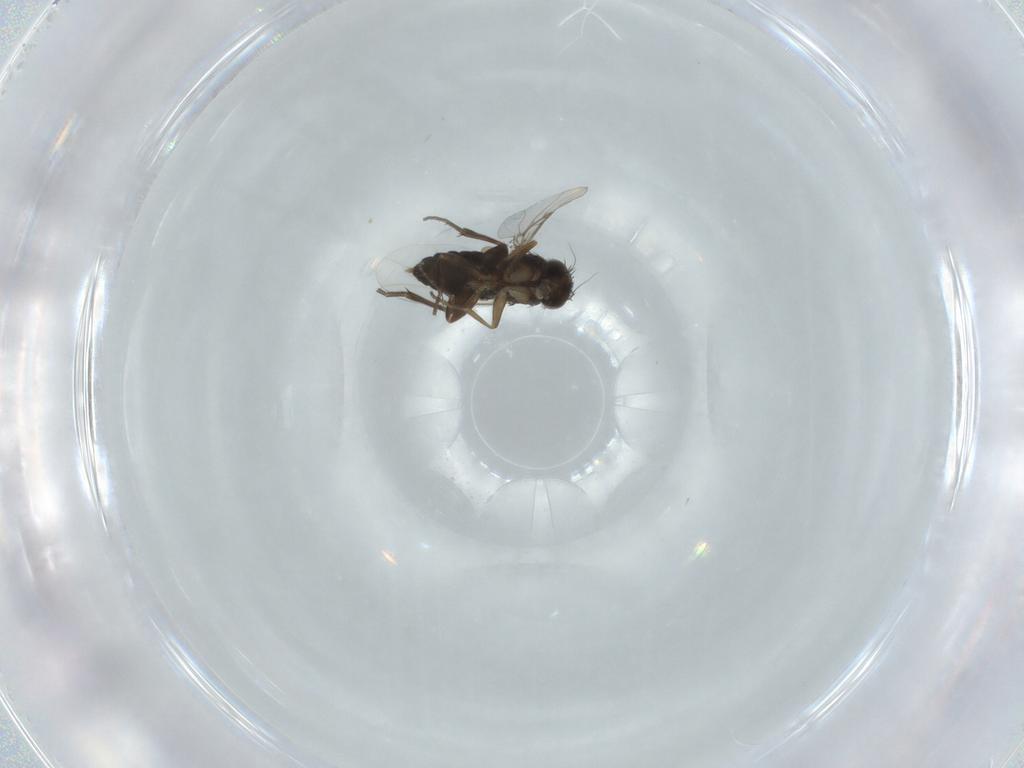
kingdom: Animalia
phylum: Arthropoda
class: Insecta
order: Diptera
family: Phoridae
